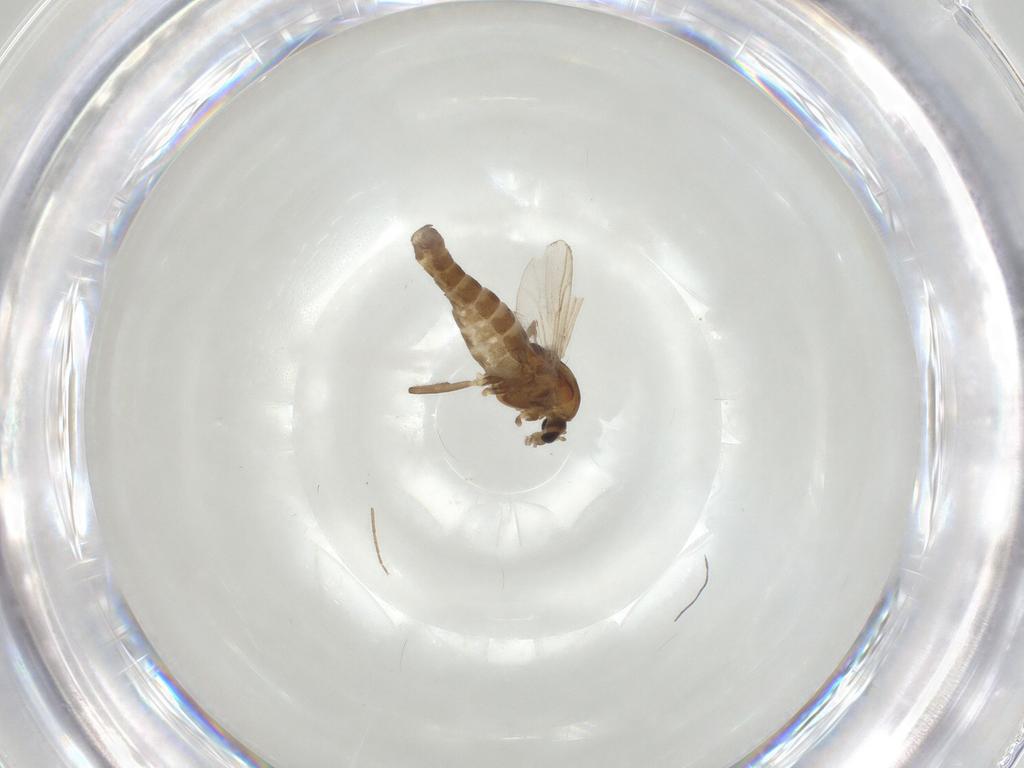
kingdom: Animalia
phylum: Arthropoda
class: Insecta
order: Diptera
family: Chironomidae
